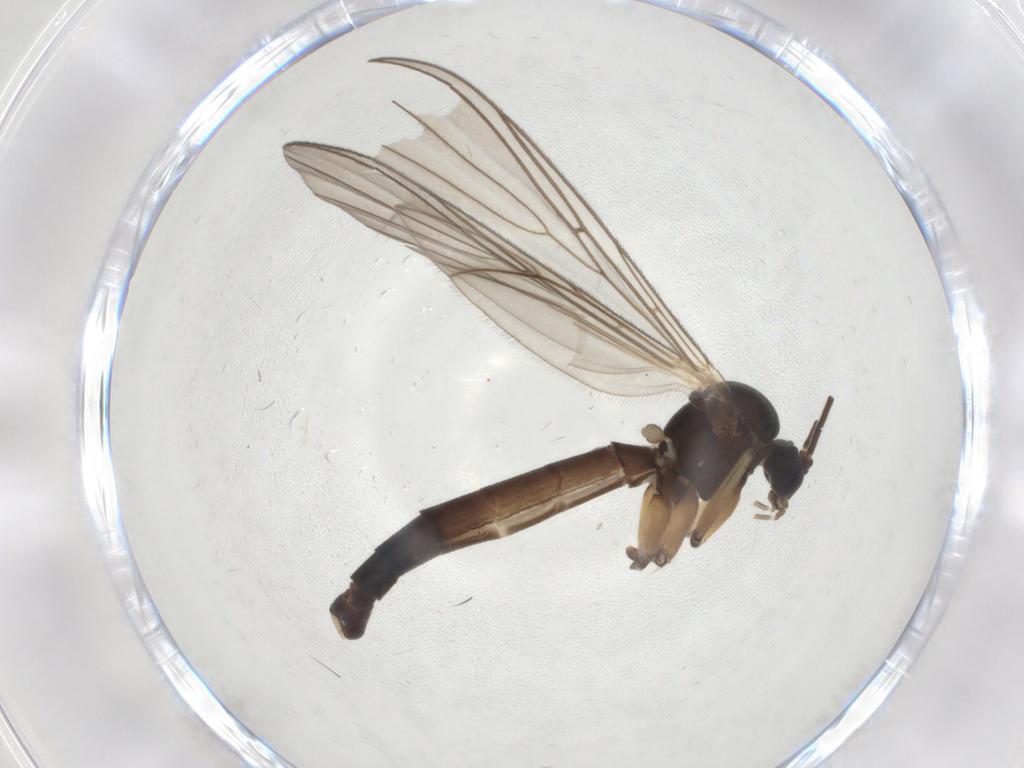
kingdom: Animalia
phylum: Arthropoda
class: Insecta
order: Diptera
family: Mycetophilidae
